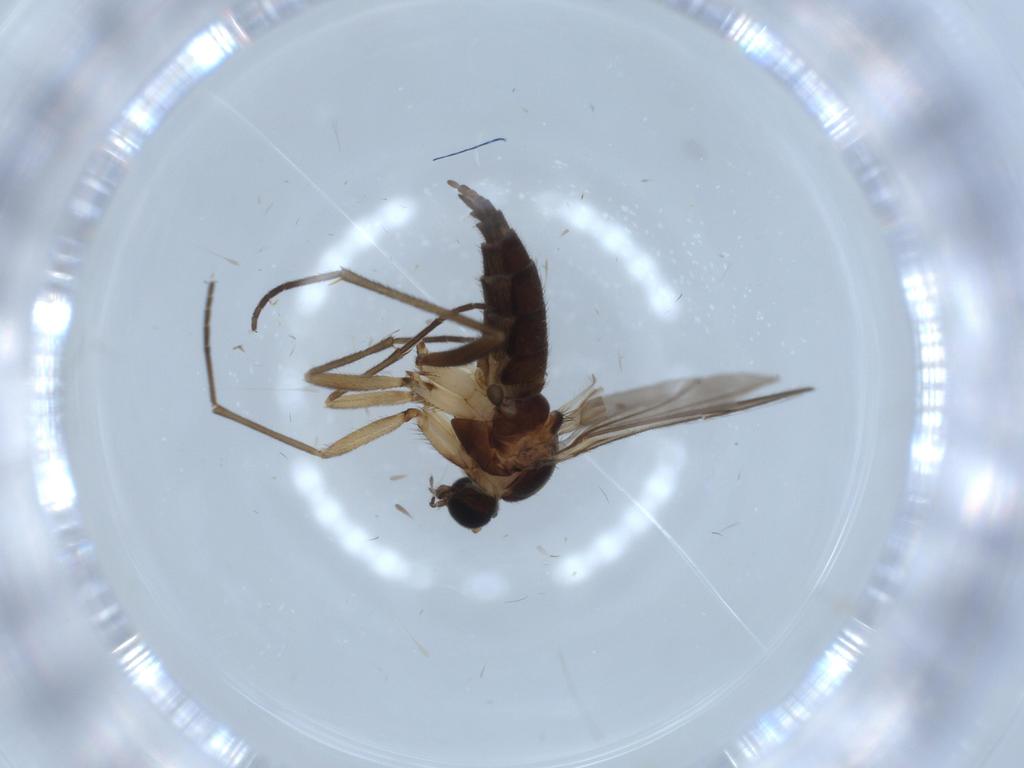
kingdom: Animalia
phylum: Arthropoda
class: Insecta
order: Diptera
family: Sciaridae
